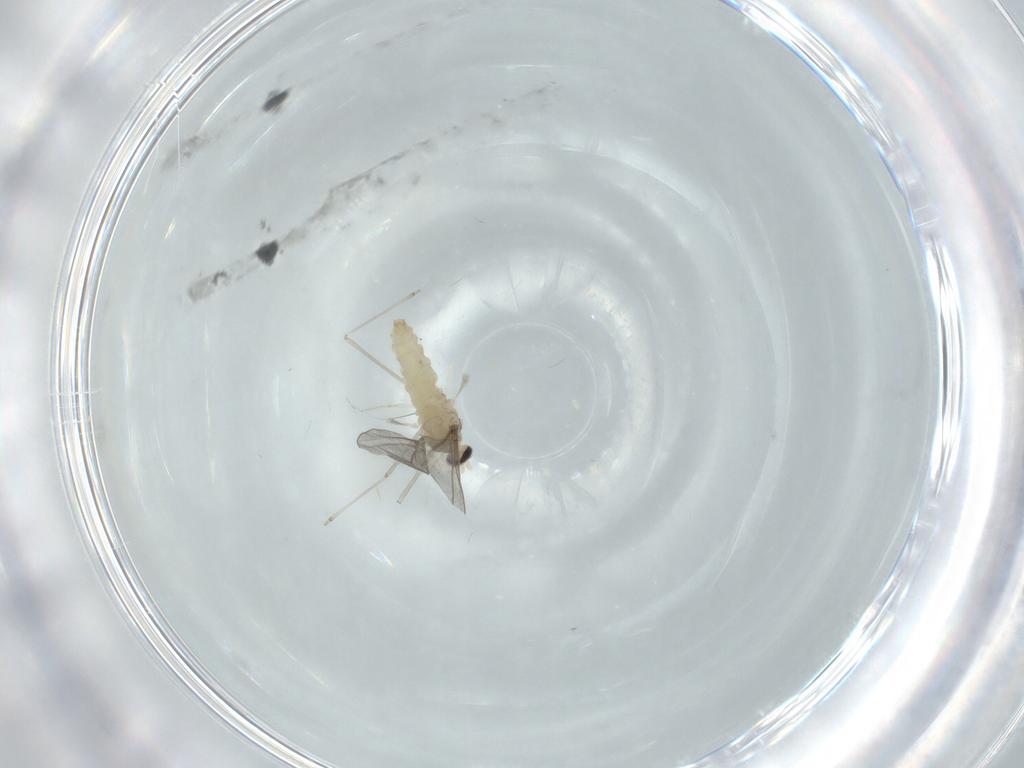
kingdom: Animalia
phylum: Arthropoda
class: Insecta
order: Diptera
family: Cecidomyiidae
